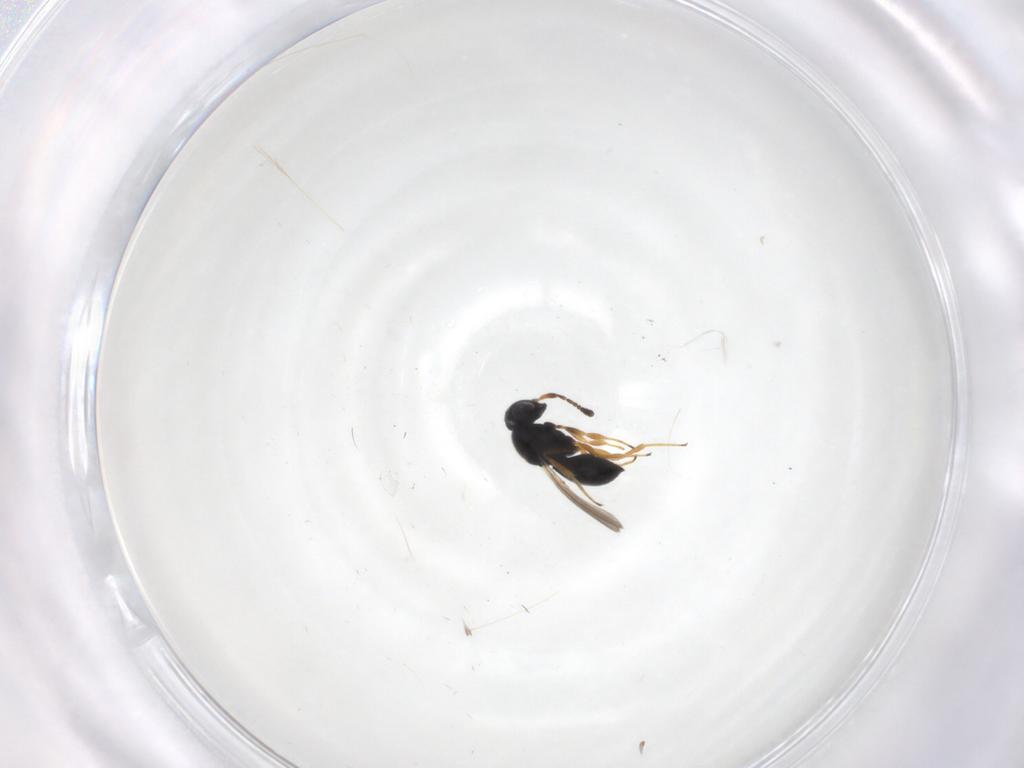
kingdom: Animalia
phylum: Arthropoda
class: Insecta
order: Hymenoptera
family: Scelionidae
